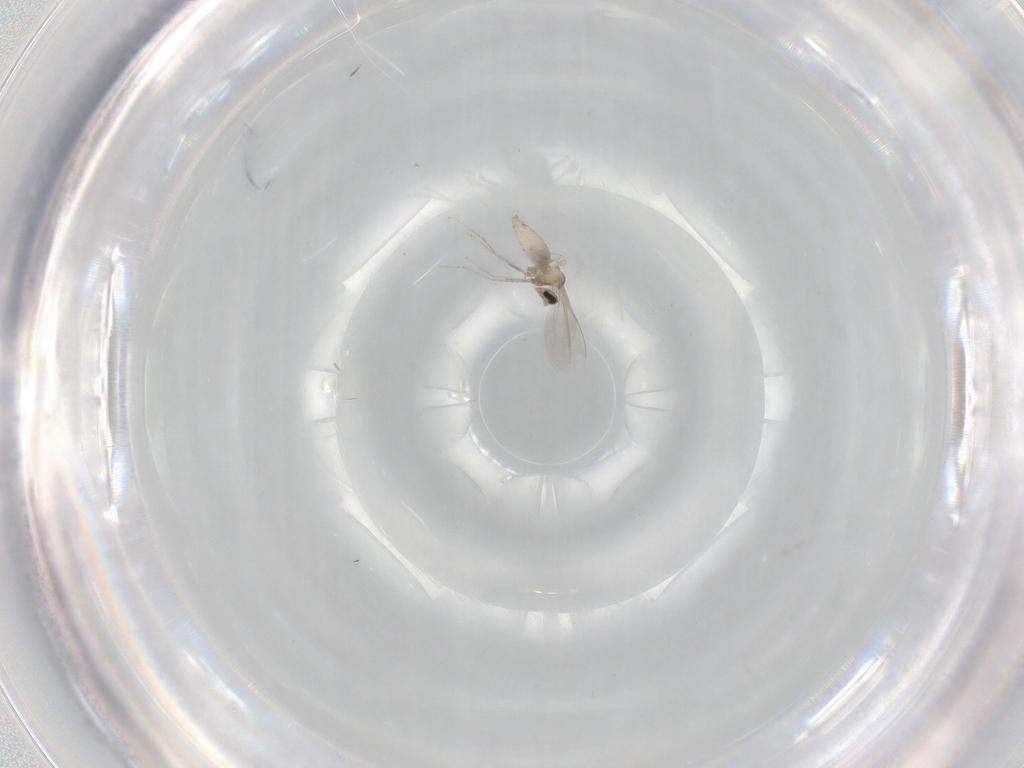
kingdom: Animalia
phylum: Arthropoda
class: Insecta
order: Diptera
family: Cecidomyiidae
